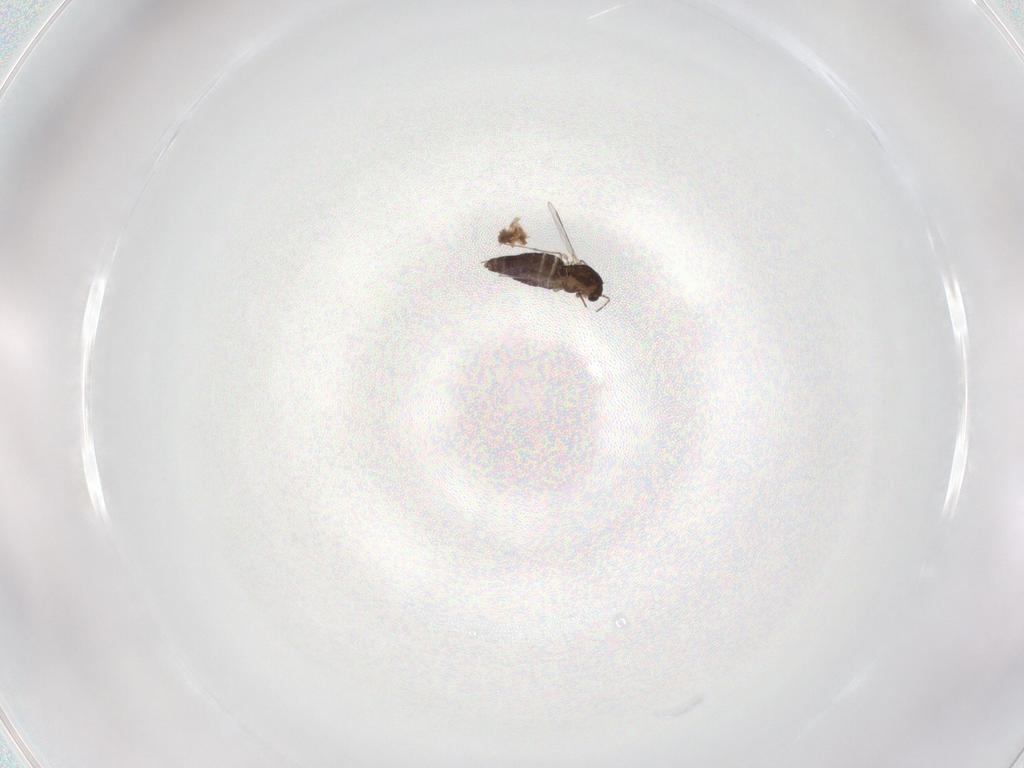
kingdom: Animalia
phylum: Arthropoda
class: Insecta
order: Diptera
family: Chironomidae
